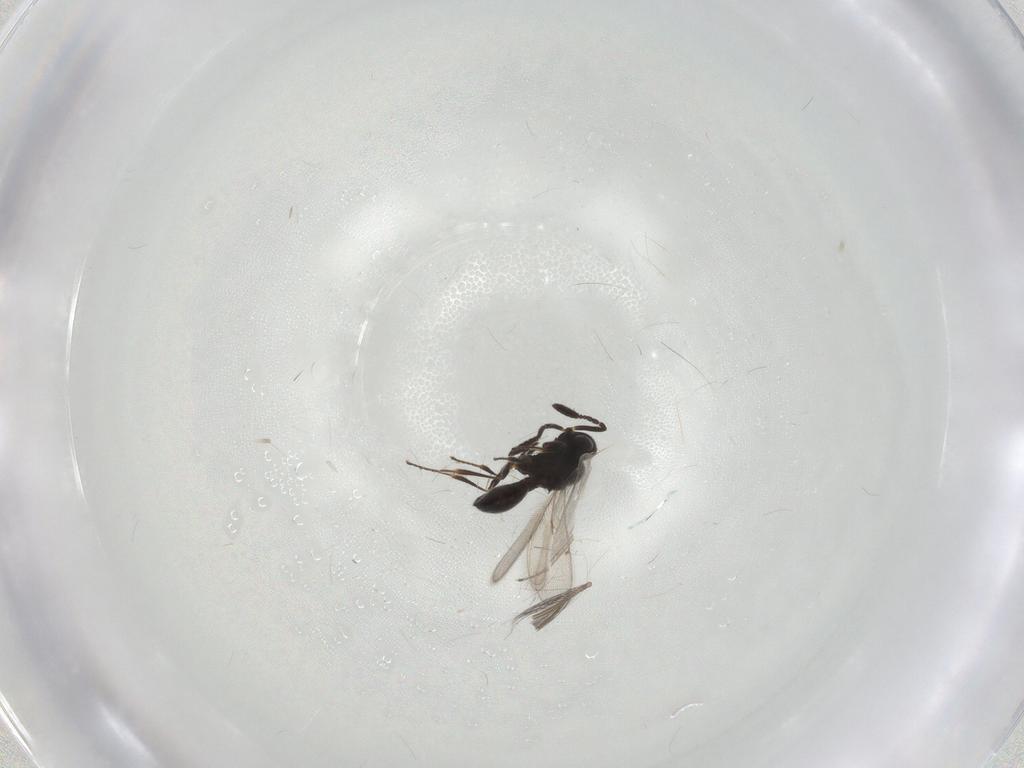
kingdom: Animalia
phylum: Arthropoda
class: Insecta
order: Hymenoptera
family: Scelionidae
